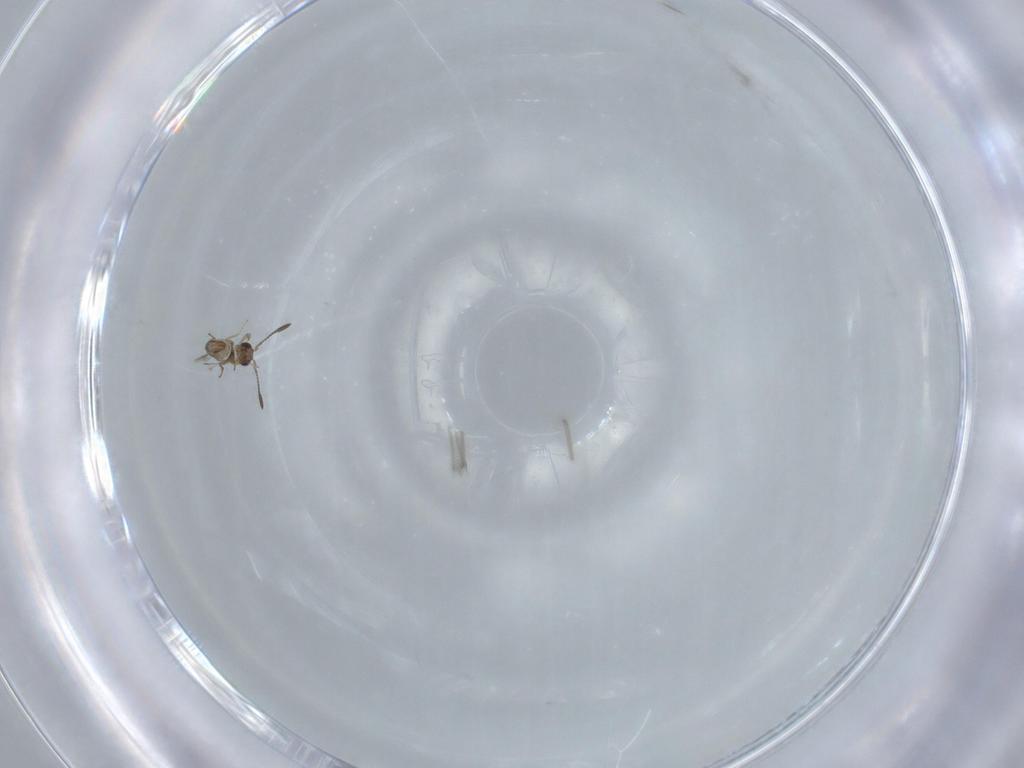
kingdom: Animalia
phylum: Arthropoda
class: Insecta
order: Hymenoptera
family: Mymaridae
